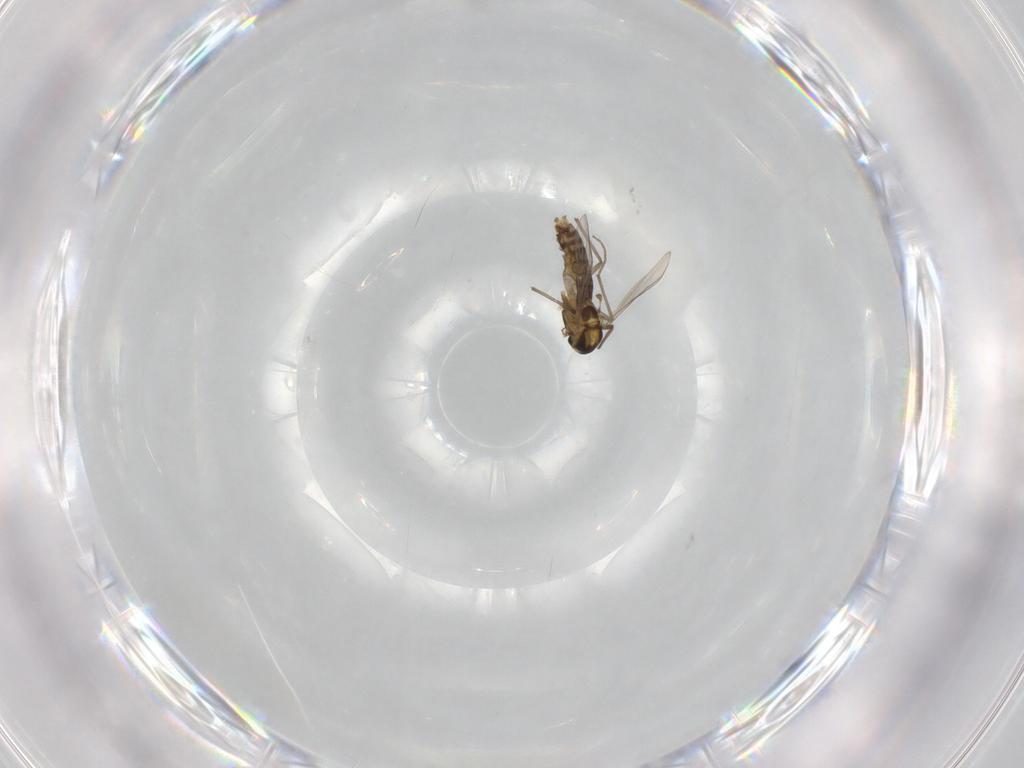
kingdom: Animalia
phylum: Arthropoda
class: Insecta
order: Diptera
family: Chironomidae
